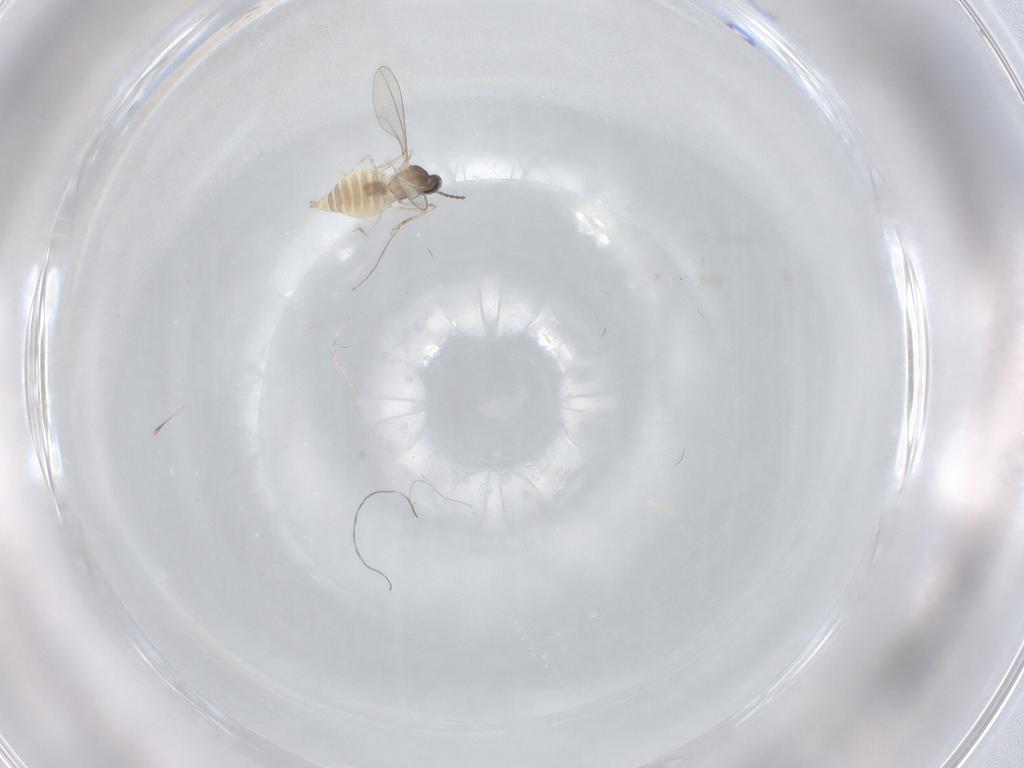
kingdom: Animalia
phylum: Arthropoda
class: Insecta
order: Diptera
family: Cecidomyiidae
